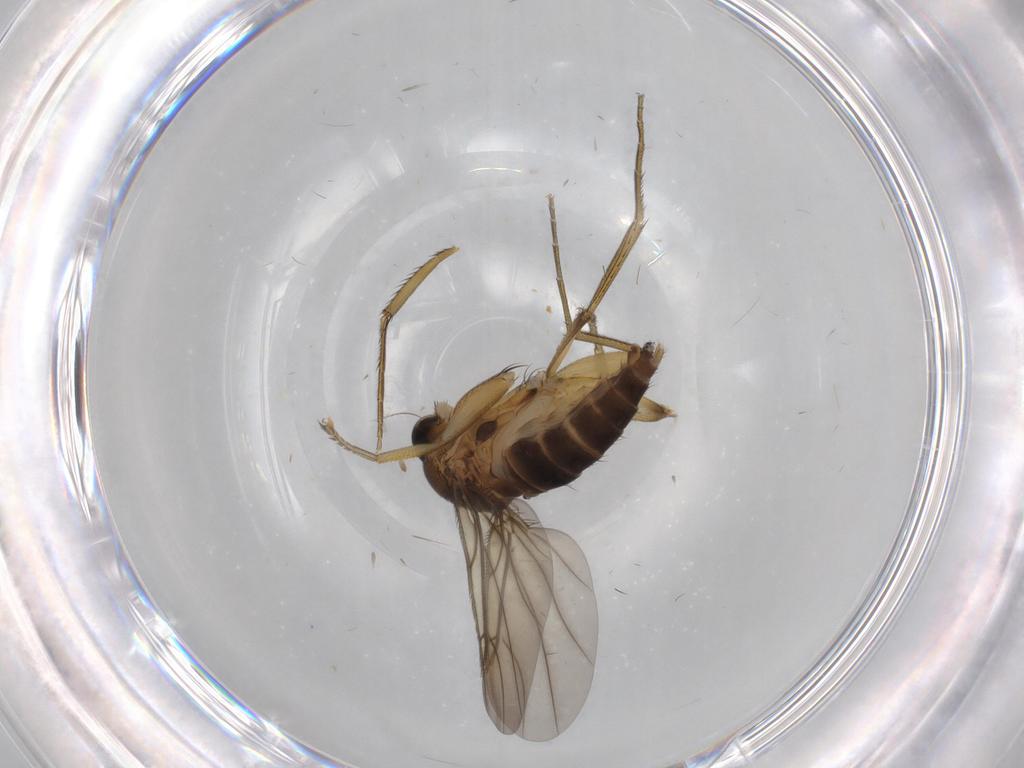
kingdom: Animalia
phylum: Arthropoda
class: Insecta
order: Diptera
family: Phoridae
